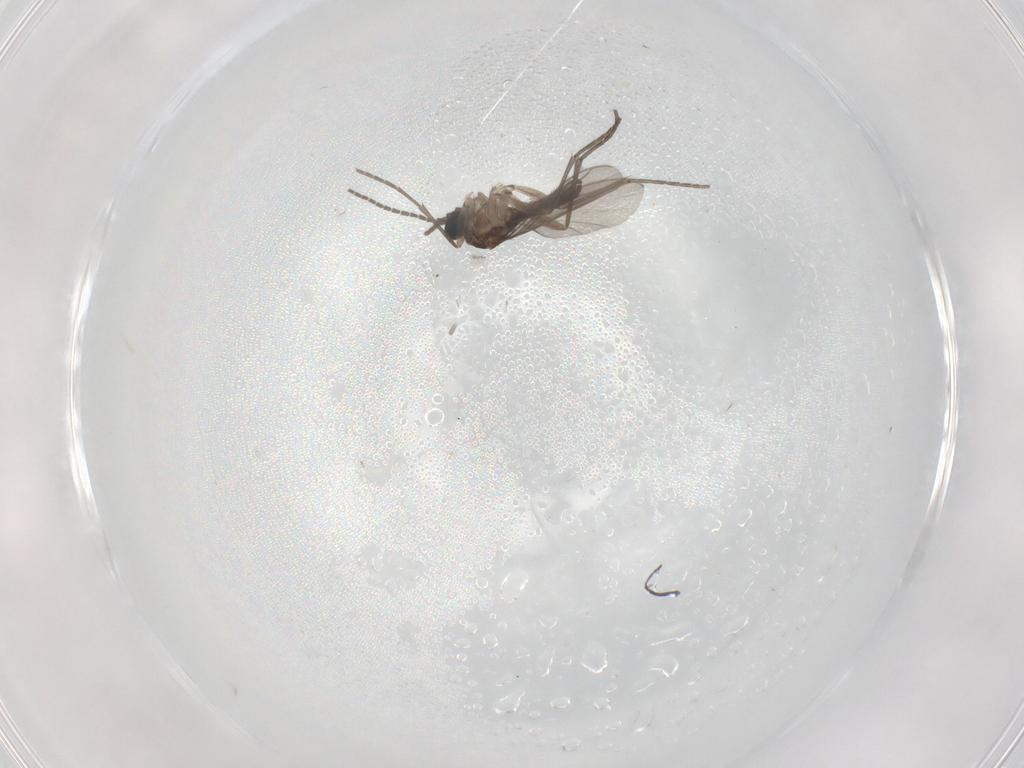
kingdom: Animalia
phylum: Arthropoda
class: Insecta
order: Diptera
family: Sciaridae
